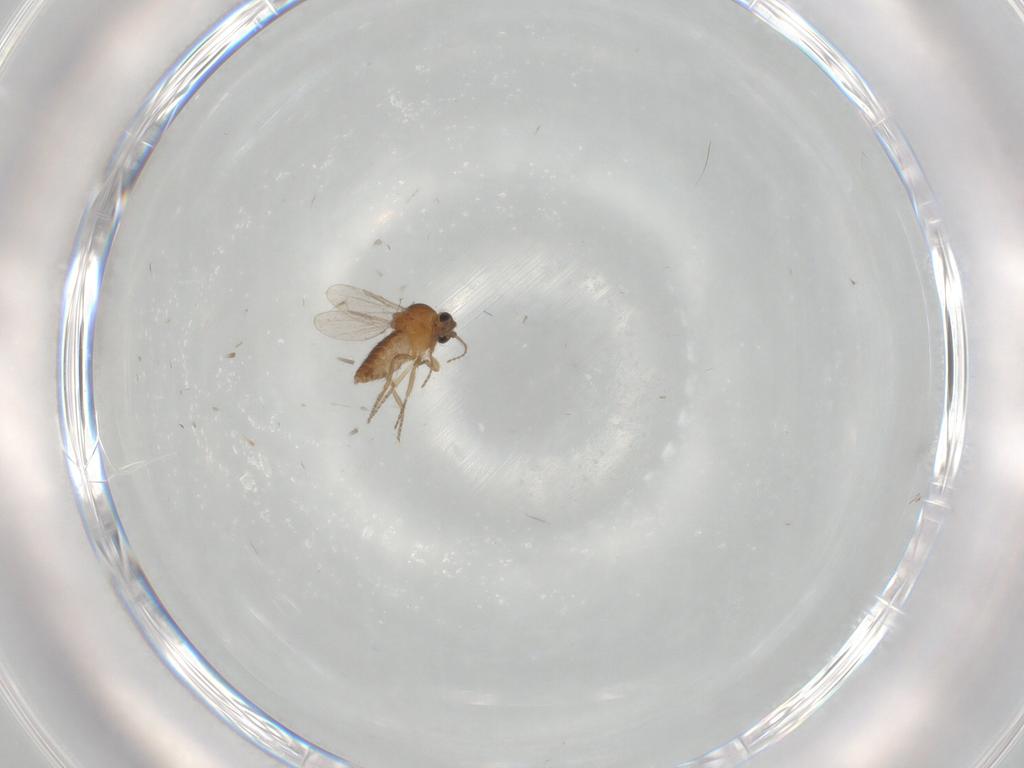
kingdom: Animalia
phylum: Arthropoda
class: Insecta
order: Diptera
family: Ceratopogonidae
